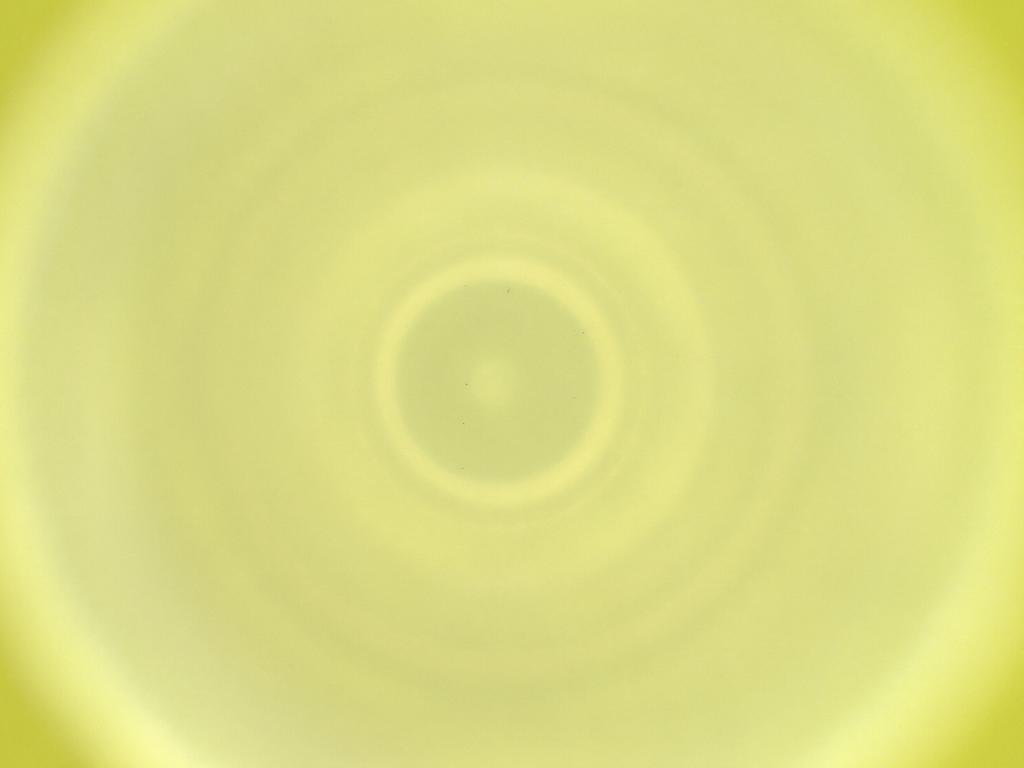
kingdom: Animalia
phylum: Arthropoda
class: Insecta
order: Diptera
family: Cecidomyiidae
